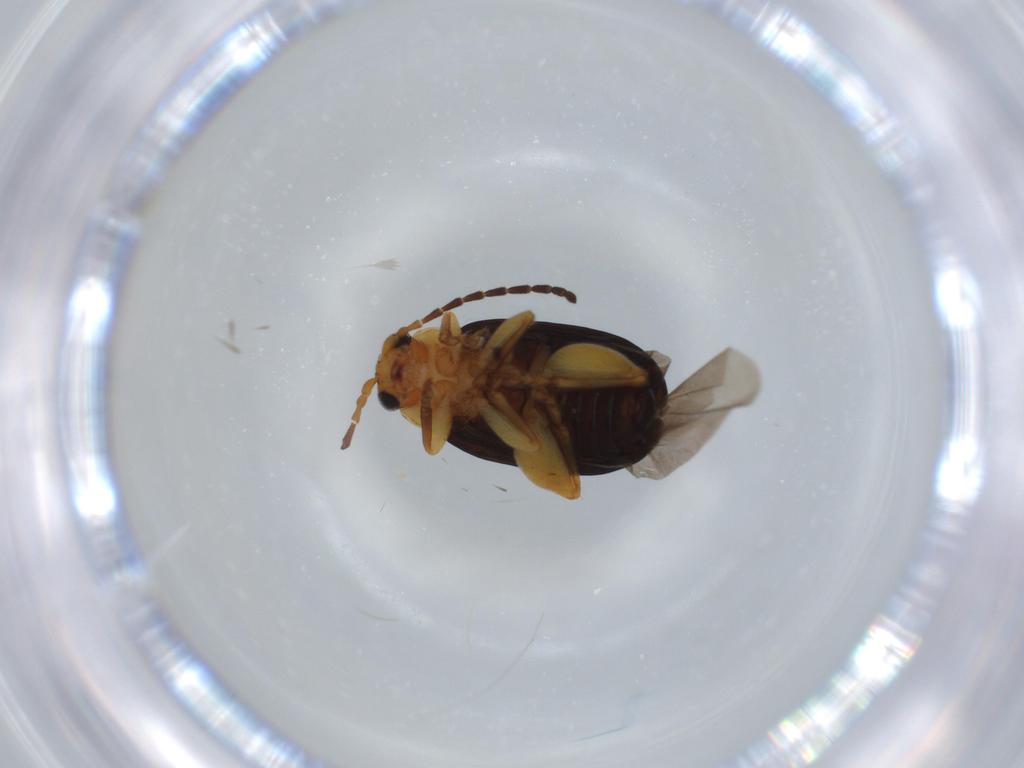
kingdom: Animalia
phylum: Arthropoda
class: Insecta
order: Coleoptera
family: Chrysomelidae
